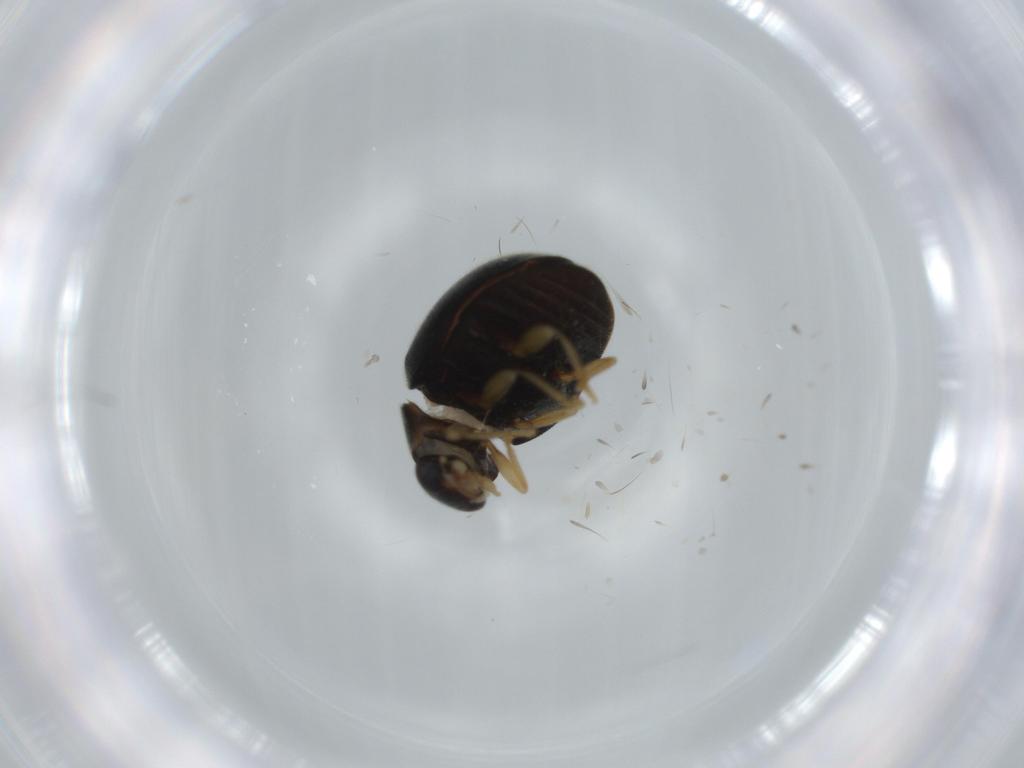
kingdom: Animalia
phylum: Arthropoda
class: Insecta
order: Coleoptera
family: Coccinellidae
